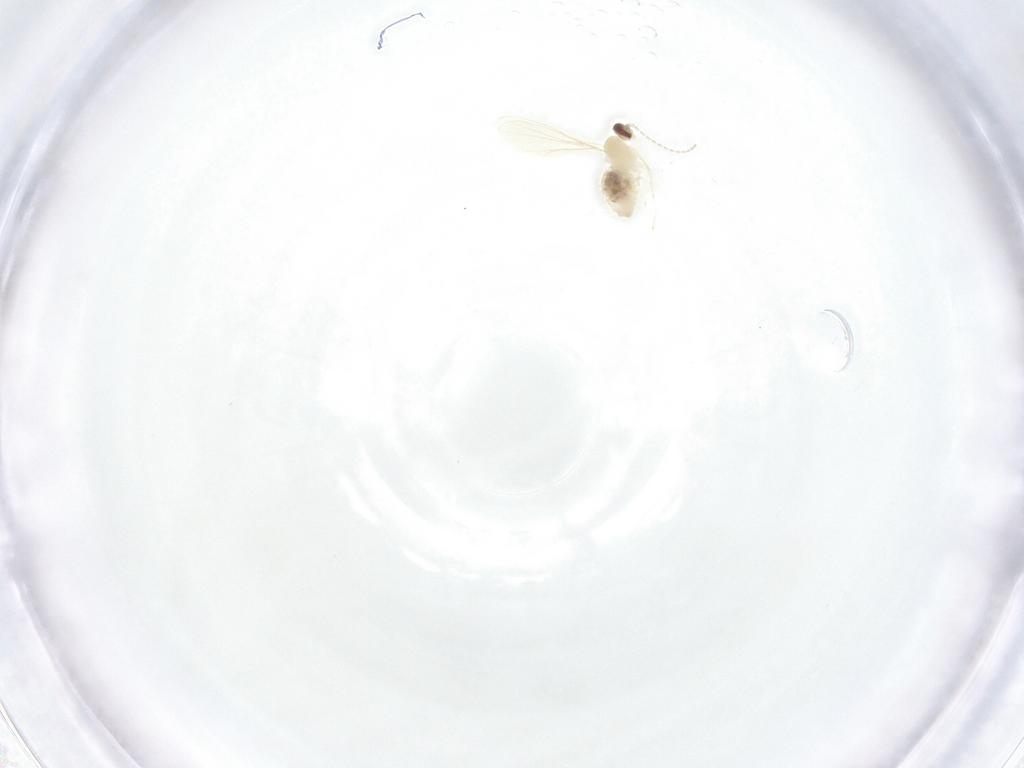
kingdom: Animalia
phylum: Arthropoda
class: Insecta
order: Diptera
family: Cecidomyiidae
